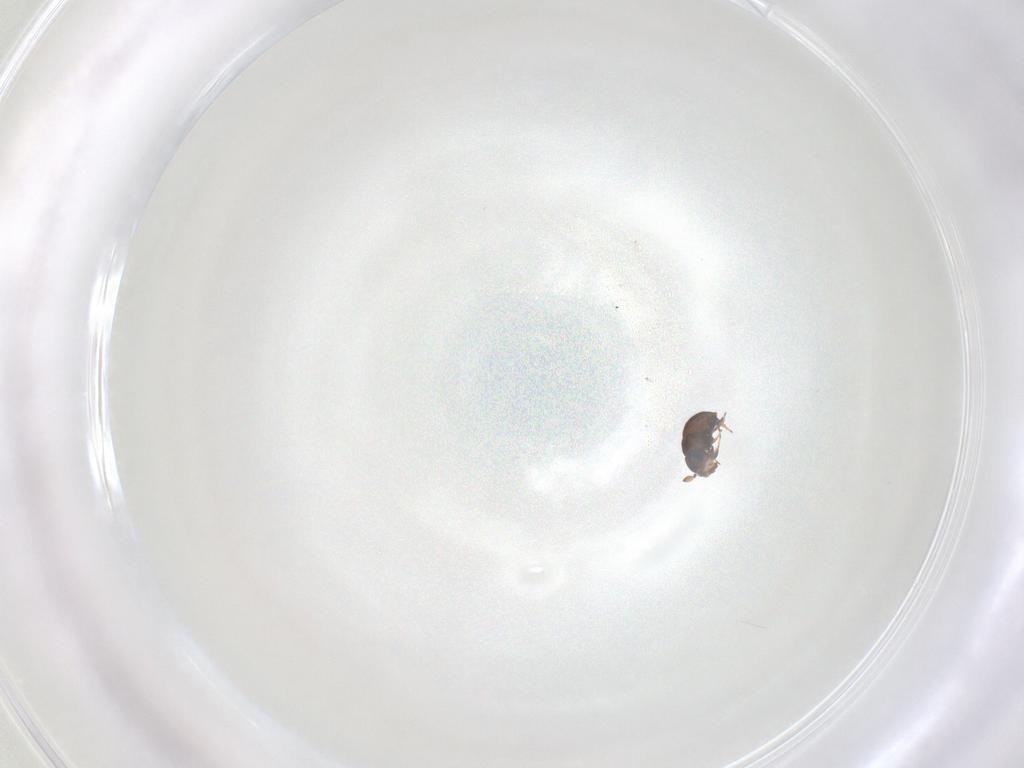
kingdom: Animalia
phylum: Arthropoda
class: Insecta
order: Hymenoptera
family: Scelionidae
